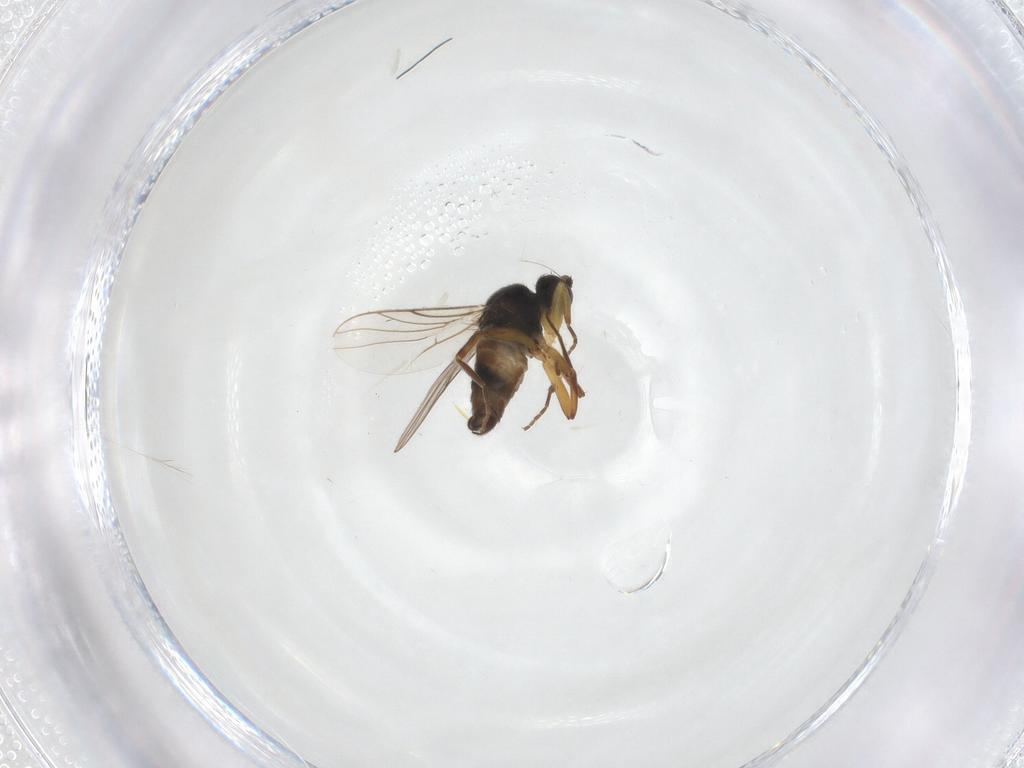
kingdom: Animalia
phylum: Arthropoda
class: Insecta
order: Diptera
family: Hybotidae
